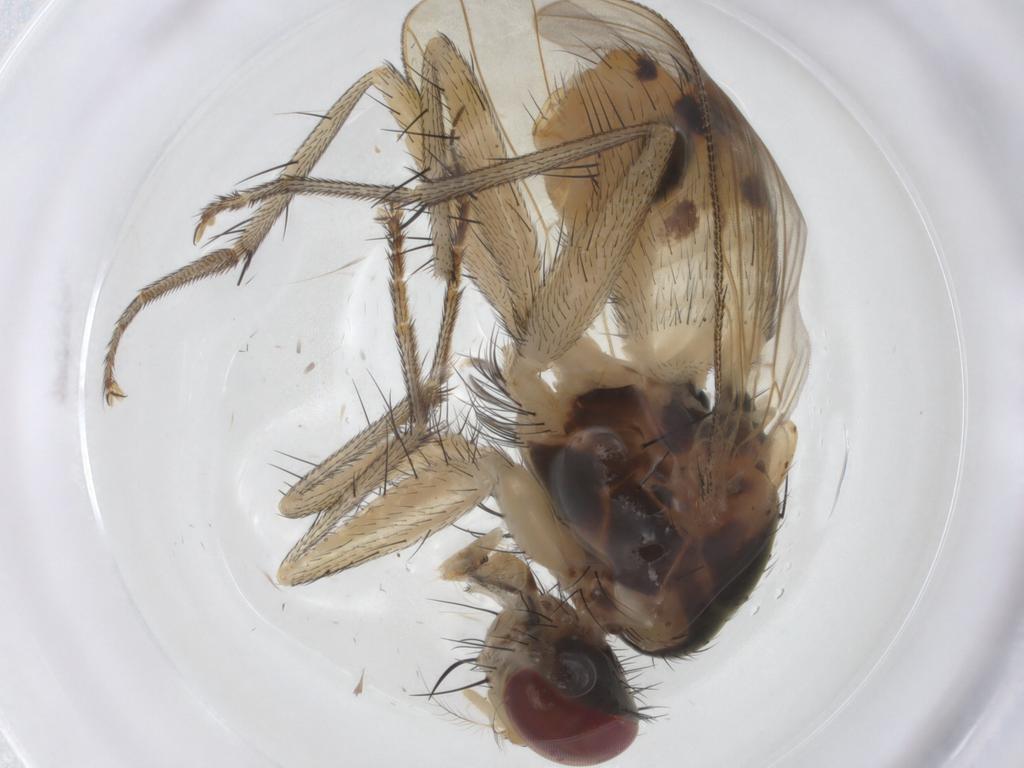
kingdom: Animalia
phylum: Arthropoda
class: Insecta
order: Diptera
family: Muscidae
